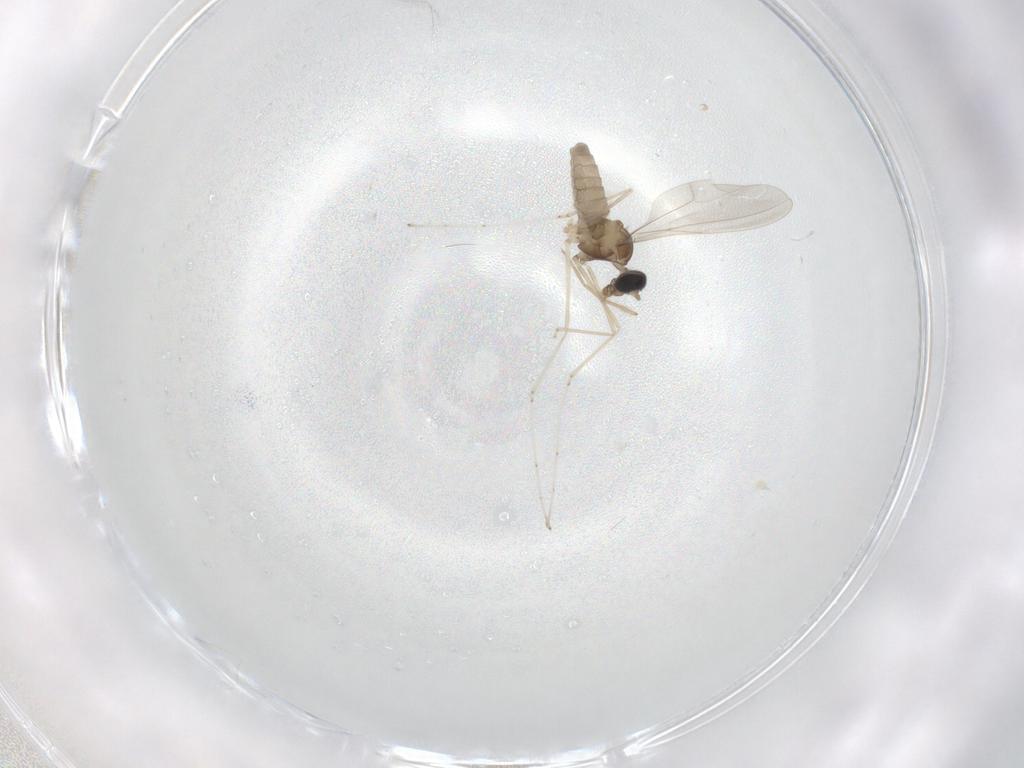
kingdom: Animalia
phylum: Arthropoda
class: Insecta
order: Diptera
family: Cecidomyiidae
